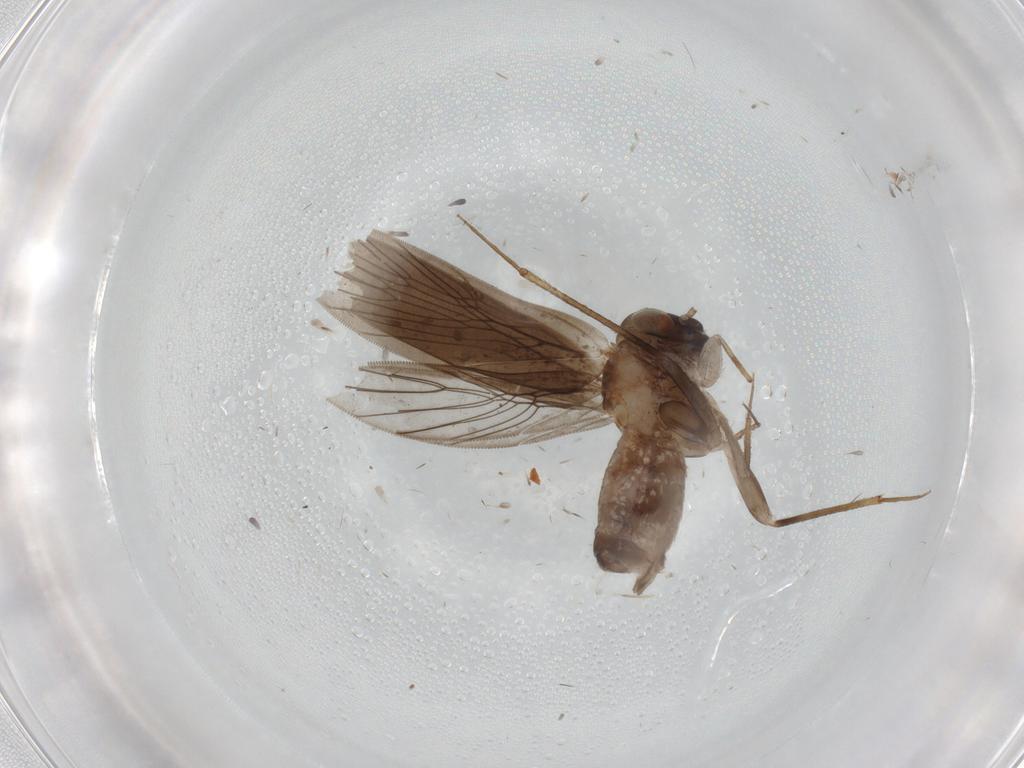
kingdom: Animalia
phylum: Arthropoda
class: Insecta
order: Psocodea
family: Lepidopsocidae
